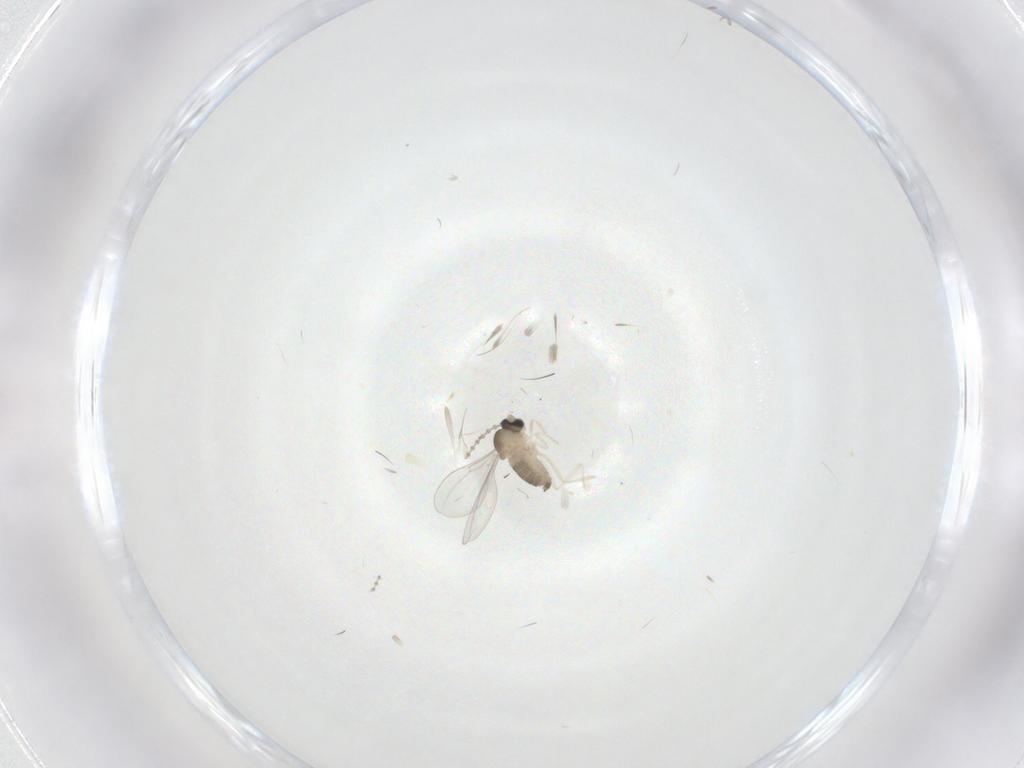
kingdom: Animalia
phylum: Arthropoda
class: Insecta
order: Diptera
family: Cecidomyiidae
